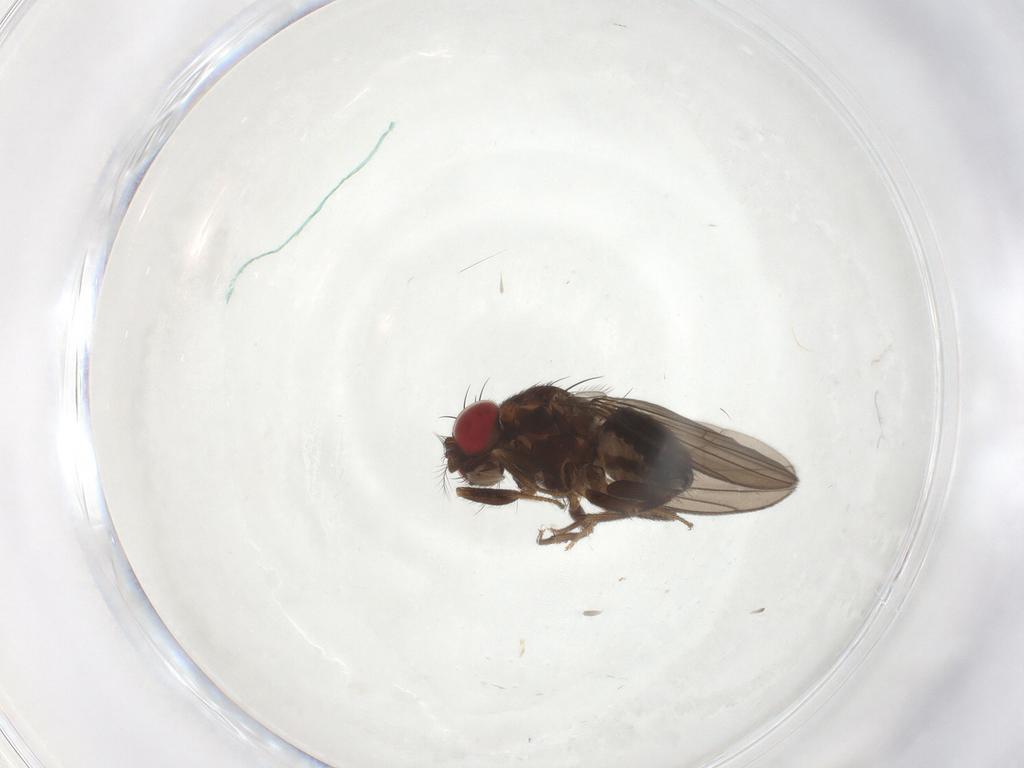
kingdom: Animalia
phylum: Arthropoda
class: Insecta
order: Diptera
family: Drosophilidae
